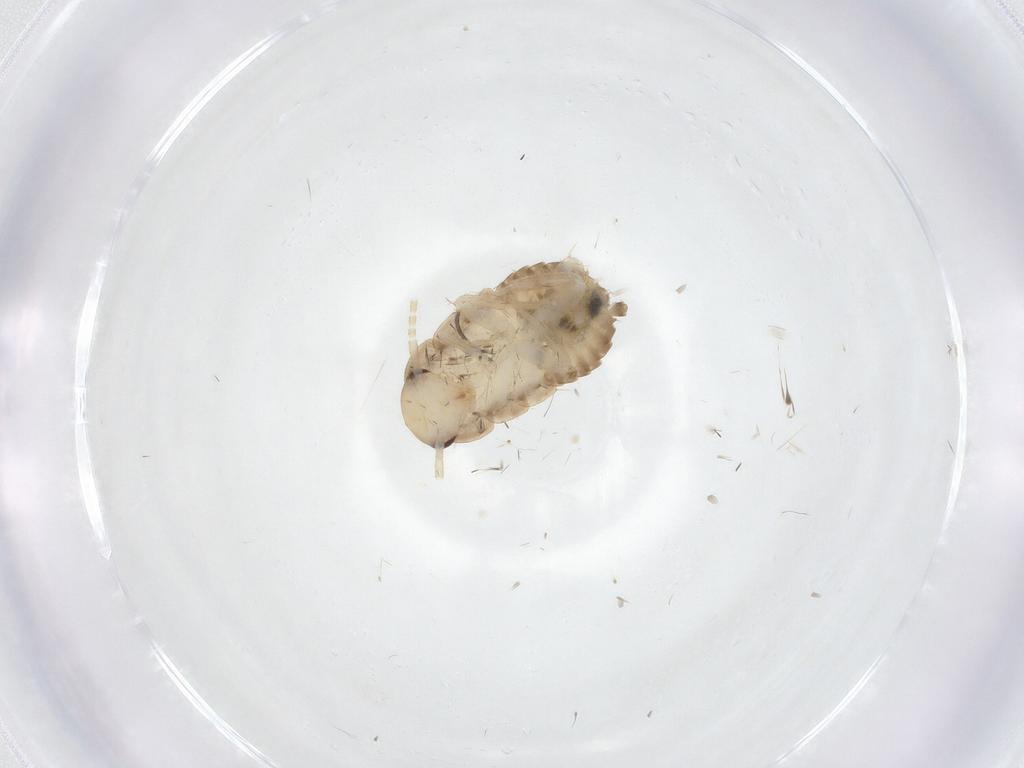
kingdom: Animalia
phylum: Arthropoda
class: Insecta
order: Blattodea
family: Ectobiidae
